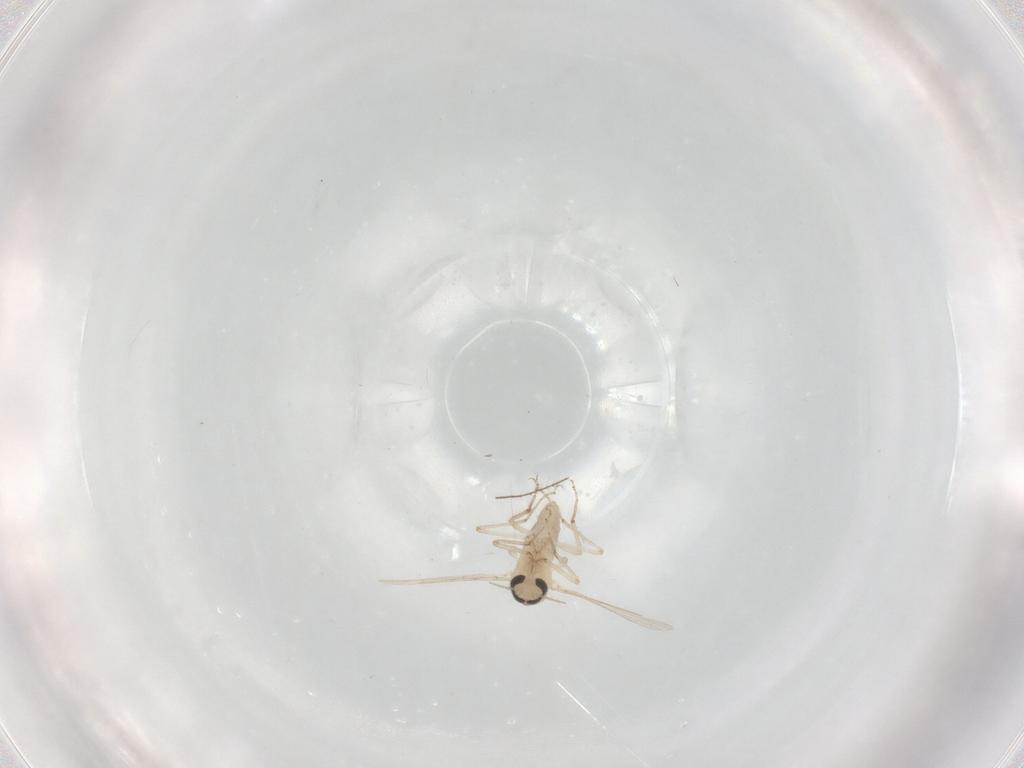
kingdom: Animalia
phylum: Arthropoda
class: Insecta
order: Diptera
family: Ceratopogonidae
